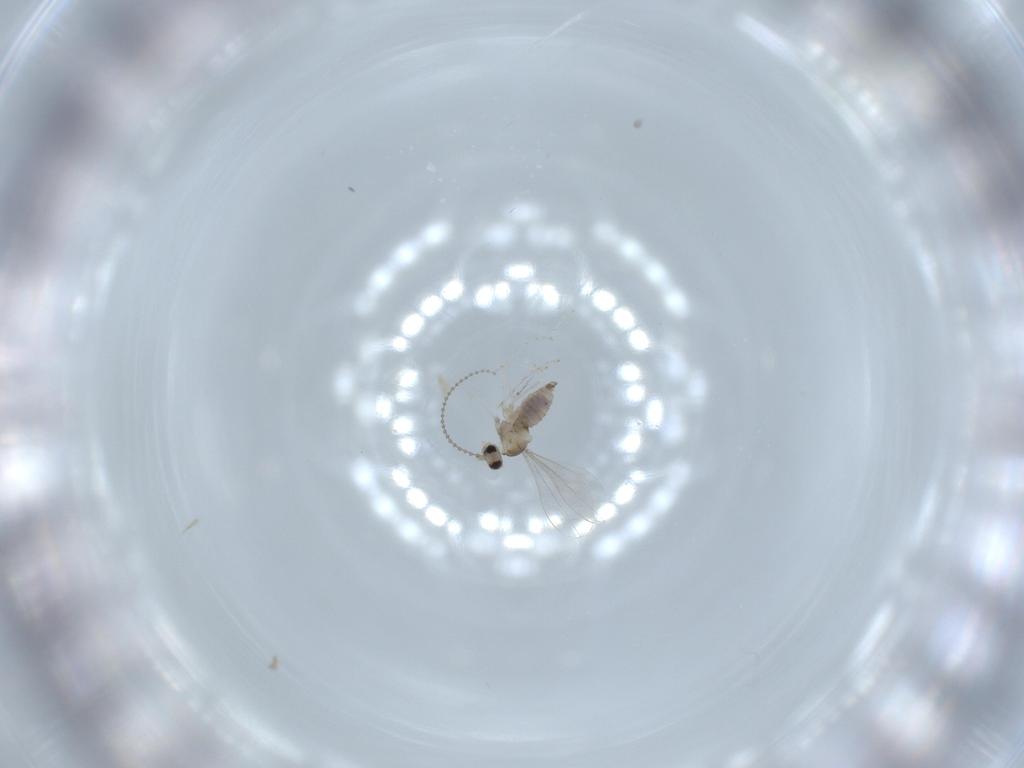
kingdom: Animalia
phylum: Arthropoda
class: Insecta
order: Diptera
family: Cecidomyiidae
